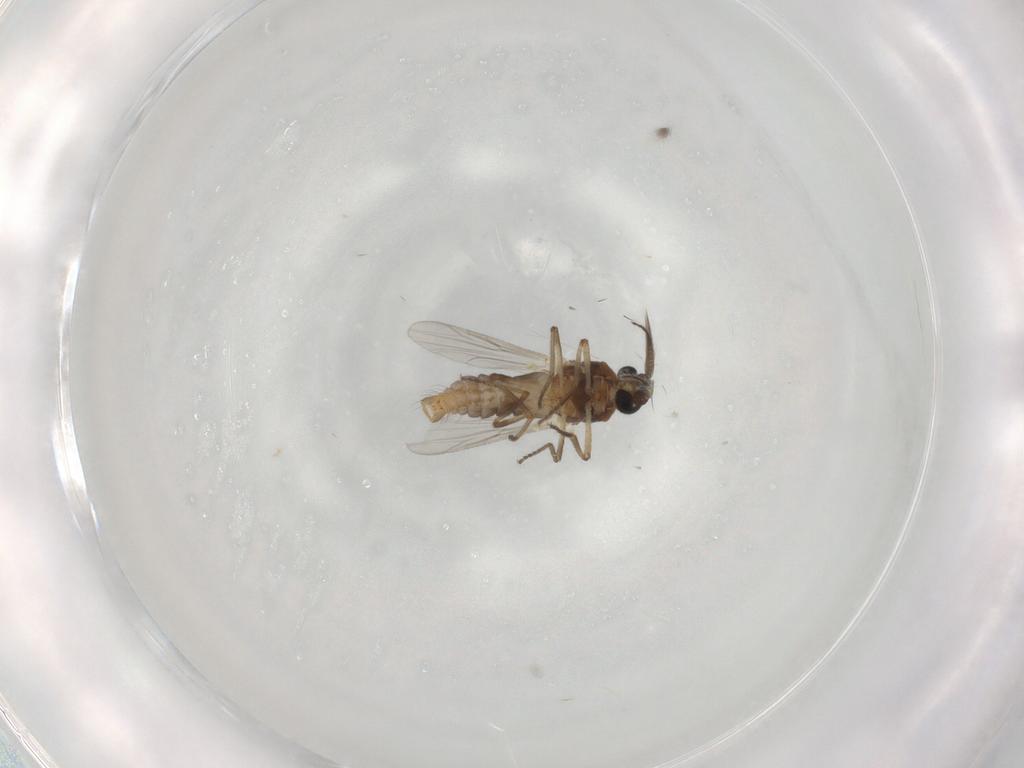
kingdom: Animalia
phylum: Arthropoda
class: Insecta
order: Diptera
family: Ceratopogonidae
